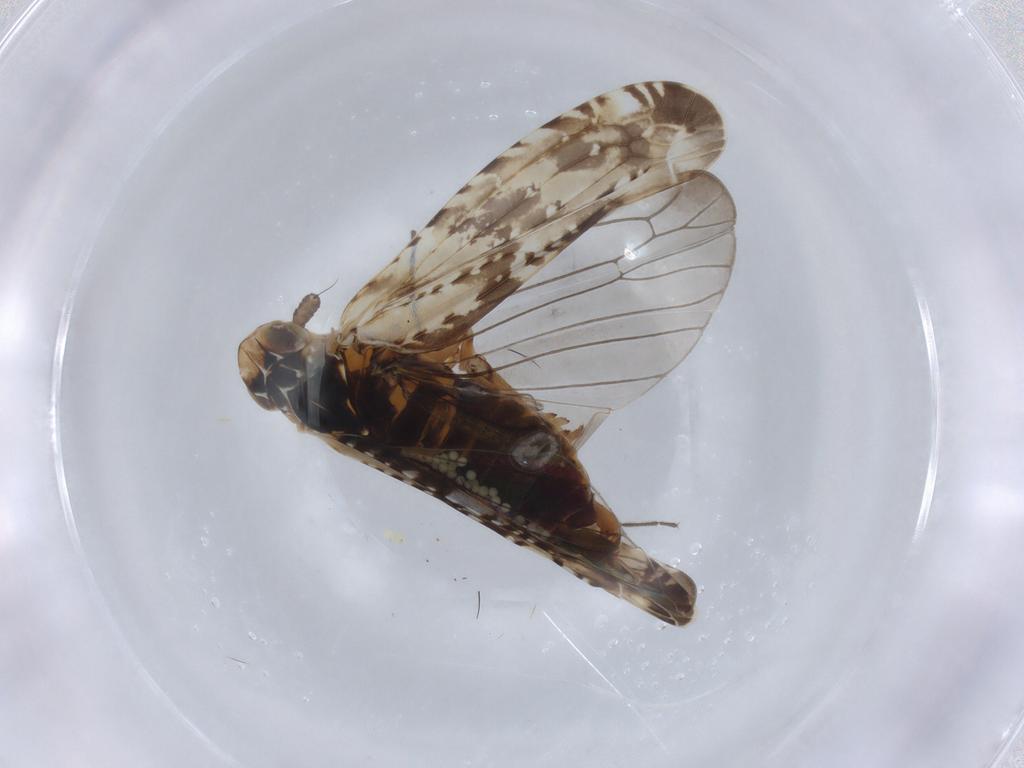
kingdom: Animalia
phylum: Arthropoda
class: Insecta
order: Hemiptera
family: Achilidae
